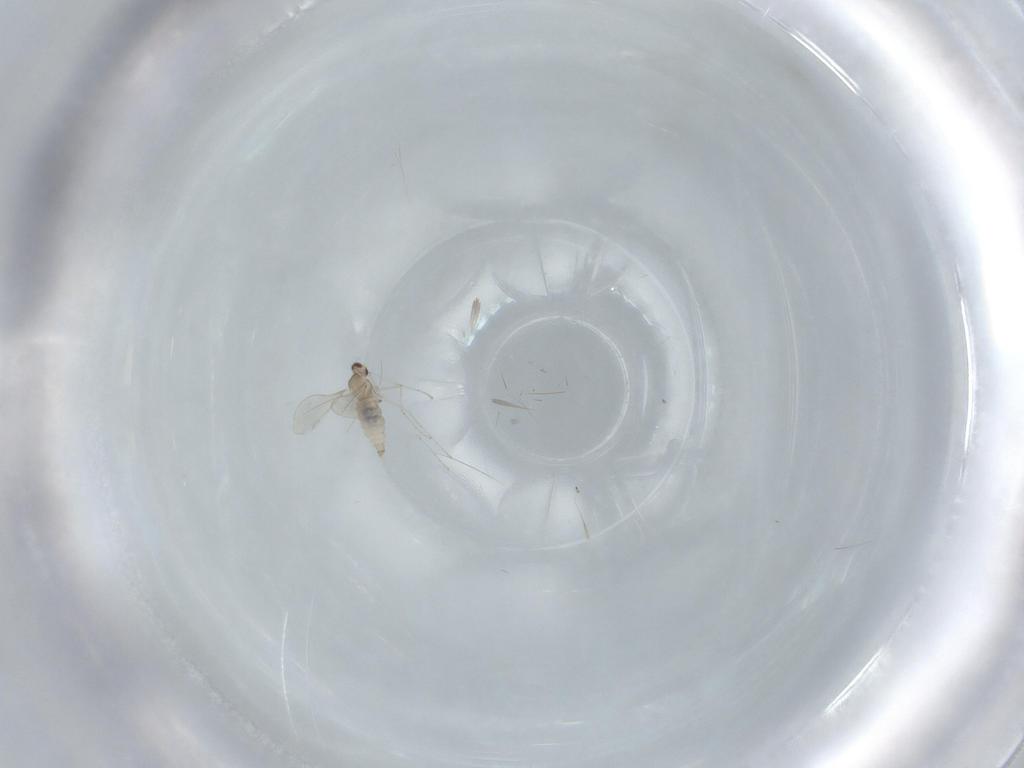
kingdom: Animalia
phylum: Arthropoda
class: Insecta
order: Diptera
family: Cecidomyiidae
